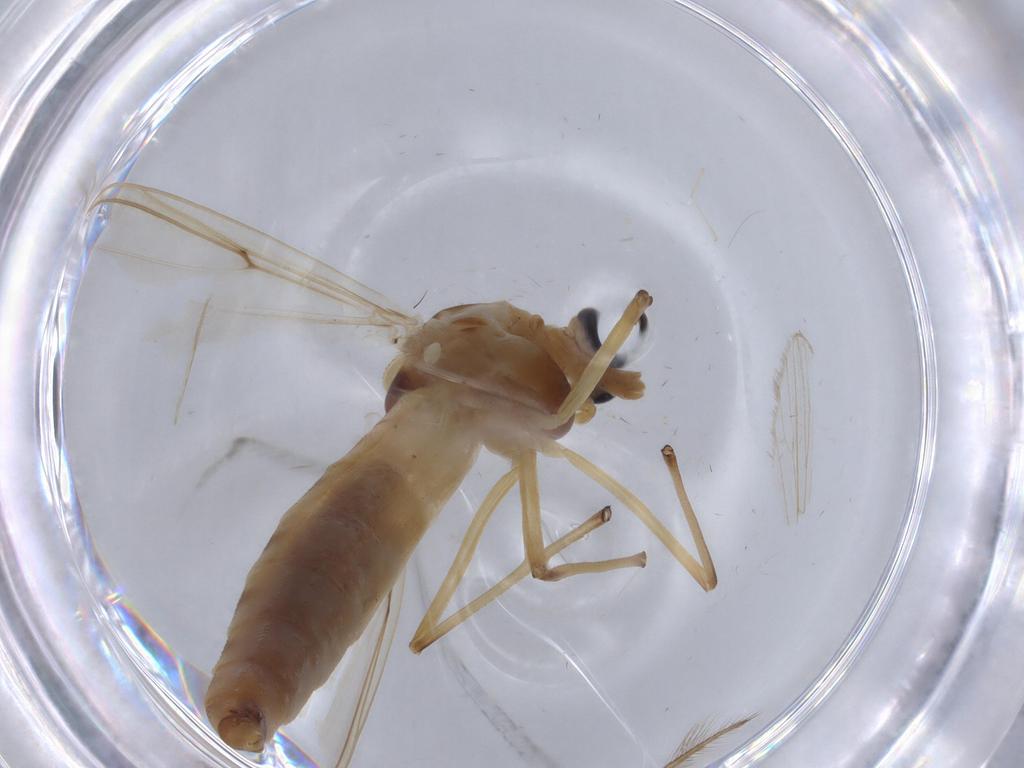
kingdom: Animalia
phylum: Arthropoda
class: Insecta
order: Diptera
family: Chironomidae
